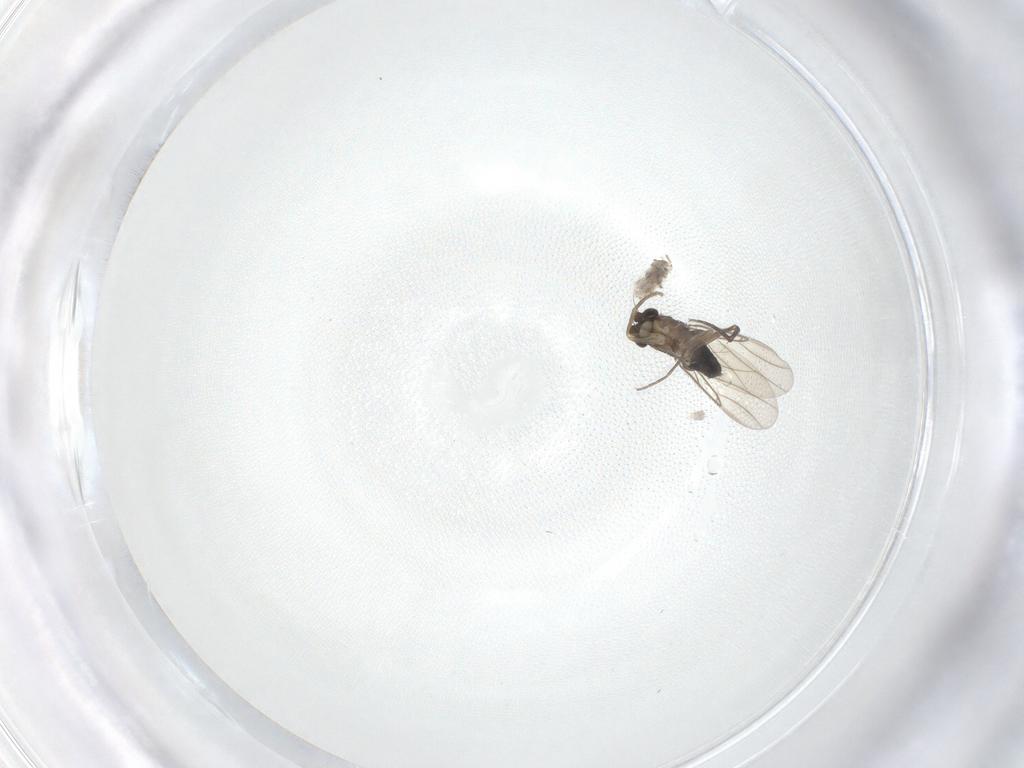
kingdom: Animalia
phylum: Arthropoda
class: Insecta
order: Diptera
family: Phoridae
